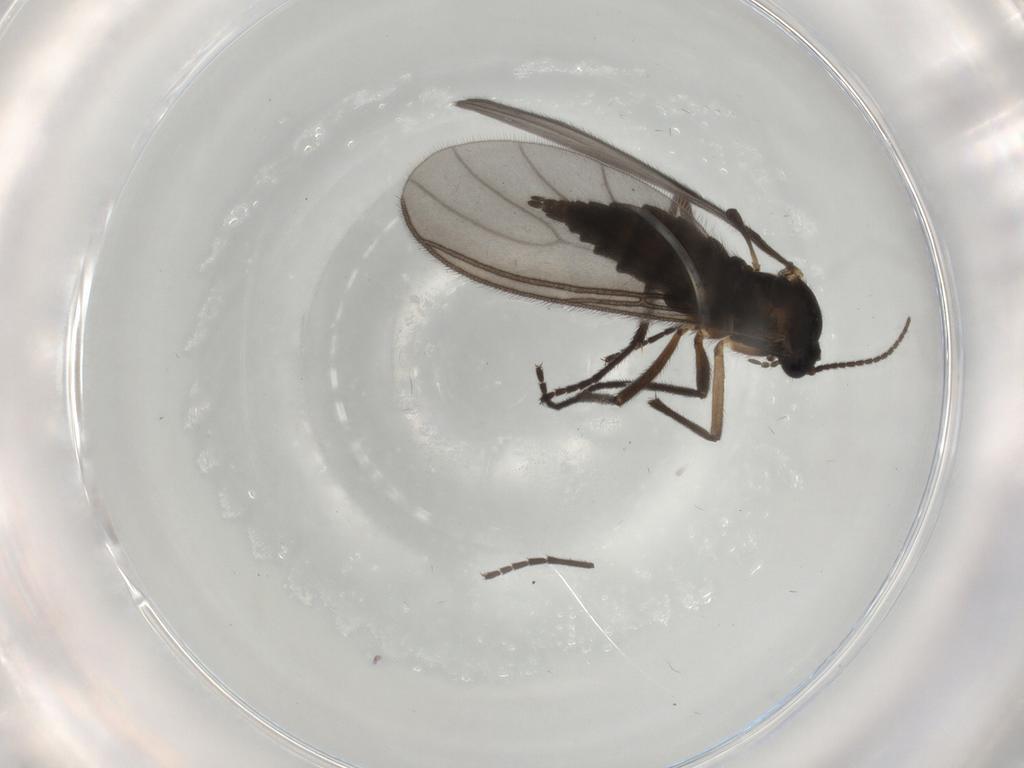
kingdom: Animalia
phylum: Arthropoda
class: Insecta
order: Diptera
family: Sciaridae
